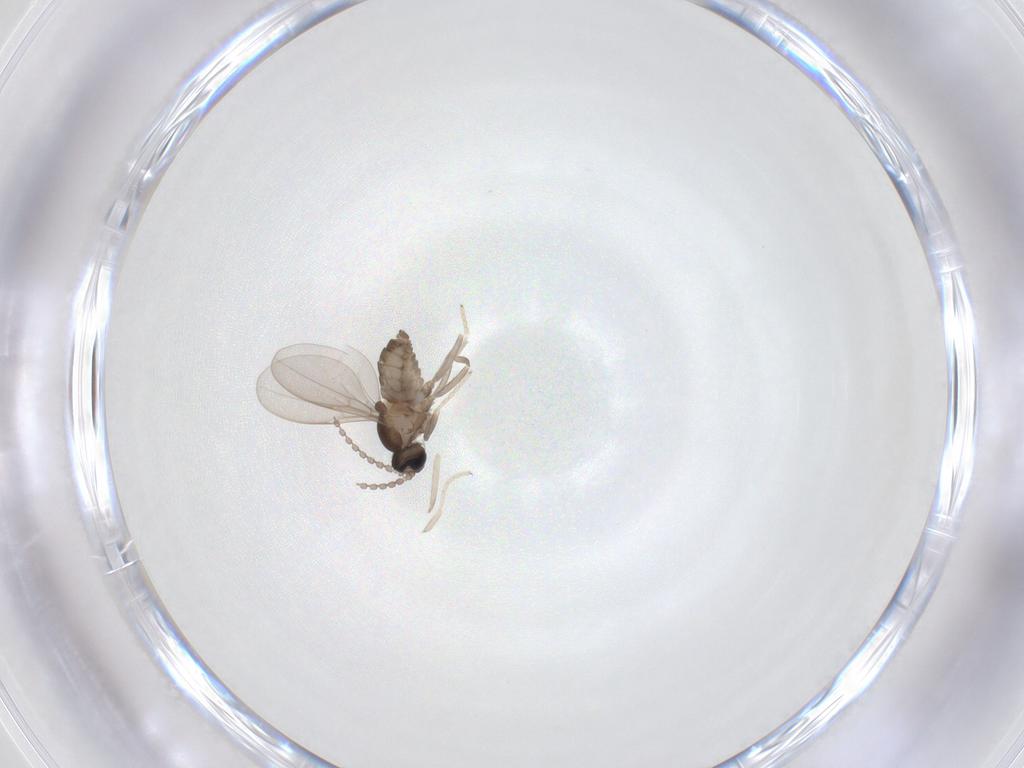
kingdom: Animalia
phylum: Arthropoda
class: Insecta
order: Diptera
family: Cecidomyiidae
